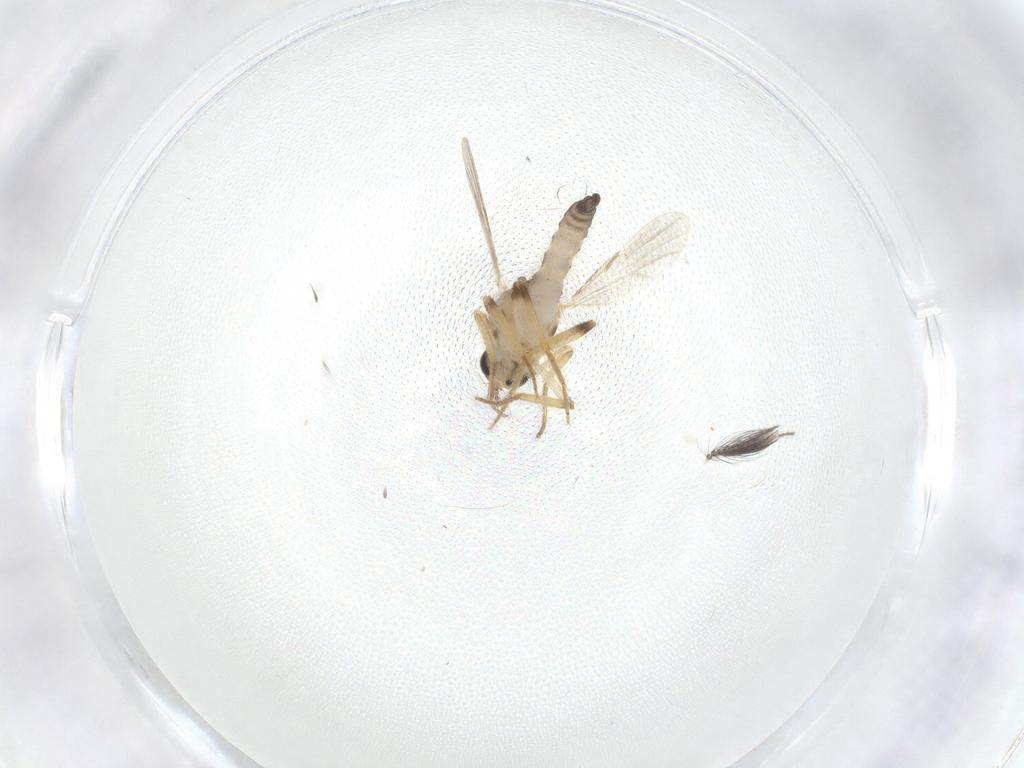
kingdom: Animalia
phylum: Arthropoda
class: Insecta
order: Diptera
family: Ceratopogonidae
